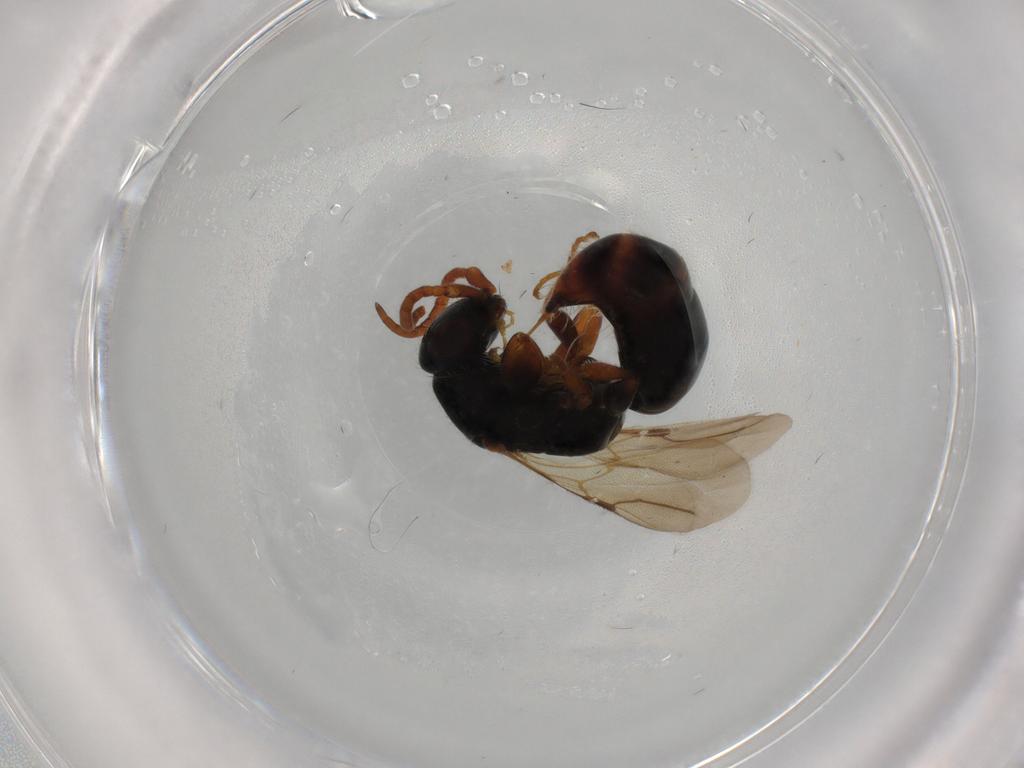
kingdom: Animalia
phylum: Arthropoda
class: Insecta
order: Hymenoptera
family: Bethylidae
